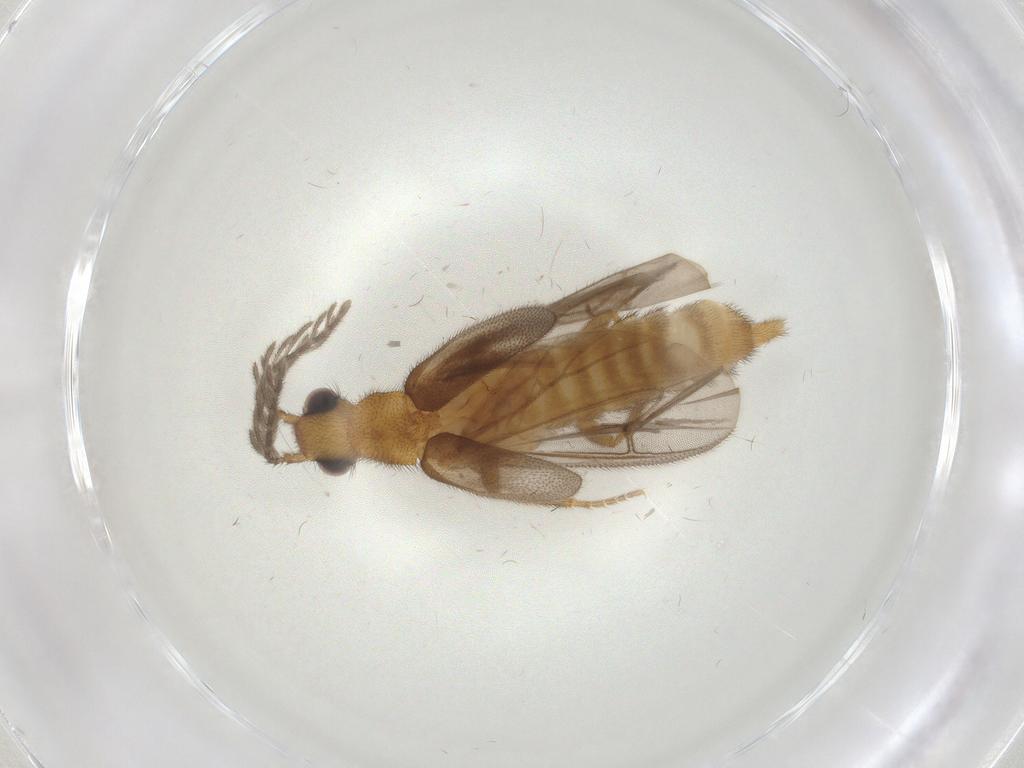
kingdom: Animalia
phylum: Arthropoda
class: Insecta
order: Coleoptera
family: Phengodidae
